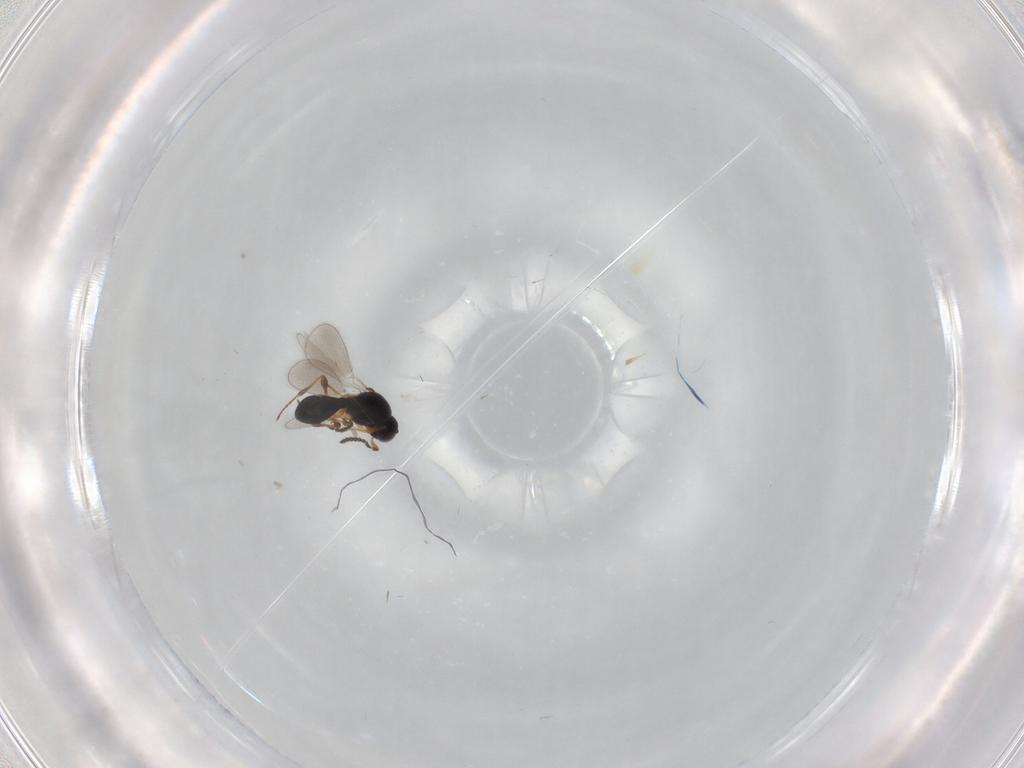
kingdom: Animalia
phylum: Arthropoda
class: Insecta
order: Hymenoptera
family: Platygastridae
